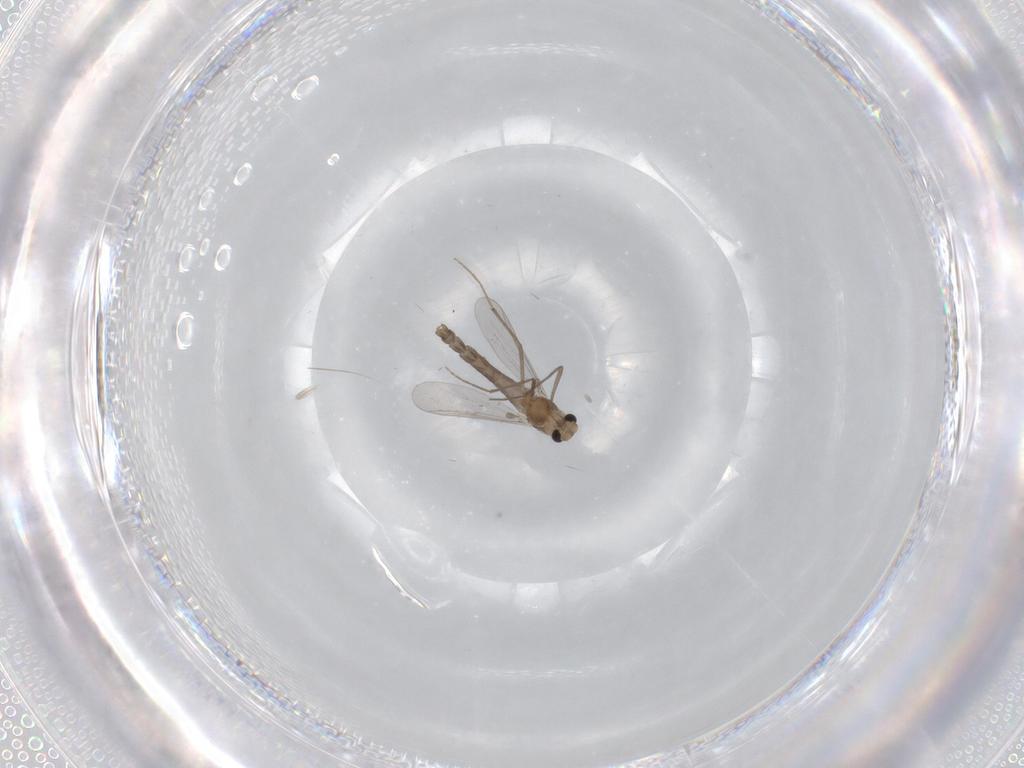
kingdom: Animalia
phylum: Arthropoda
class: Insecta
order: Diptera
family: Chironomidae
